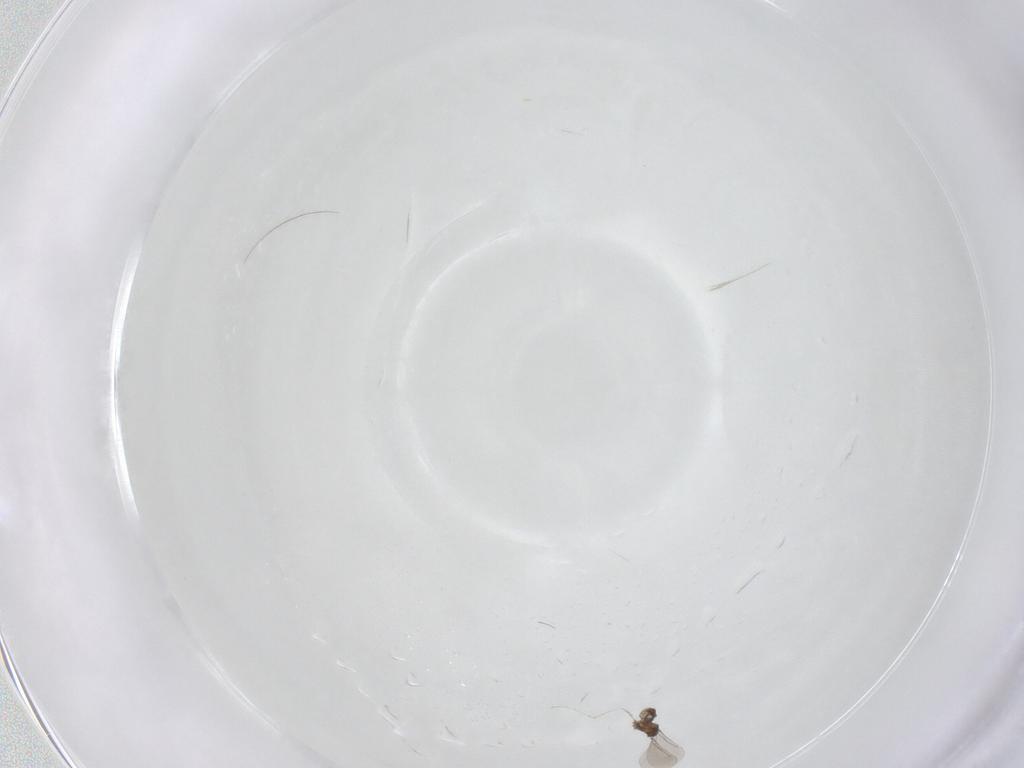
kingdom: Animalia
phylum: Arthropoda
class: Insecta
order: Diptera
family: Cecidomyiidae
